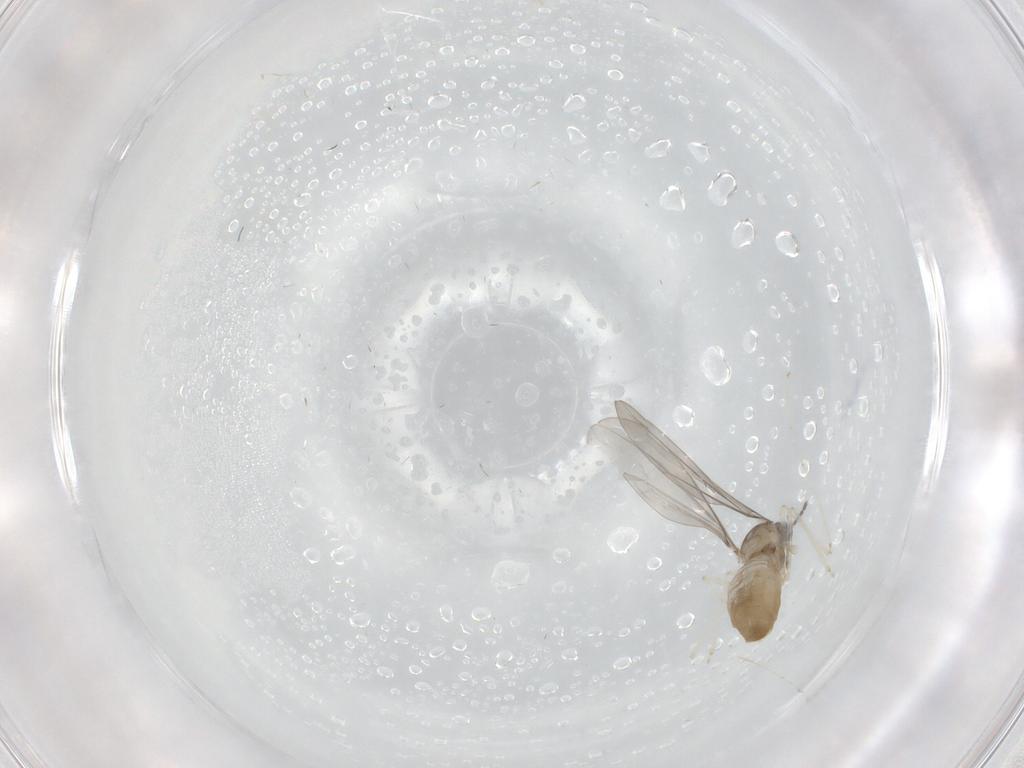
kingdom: Animalia
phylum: Arthropoda
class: Insecta
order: Diptera
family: Cecidomyiidae
